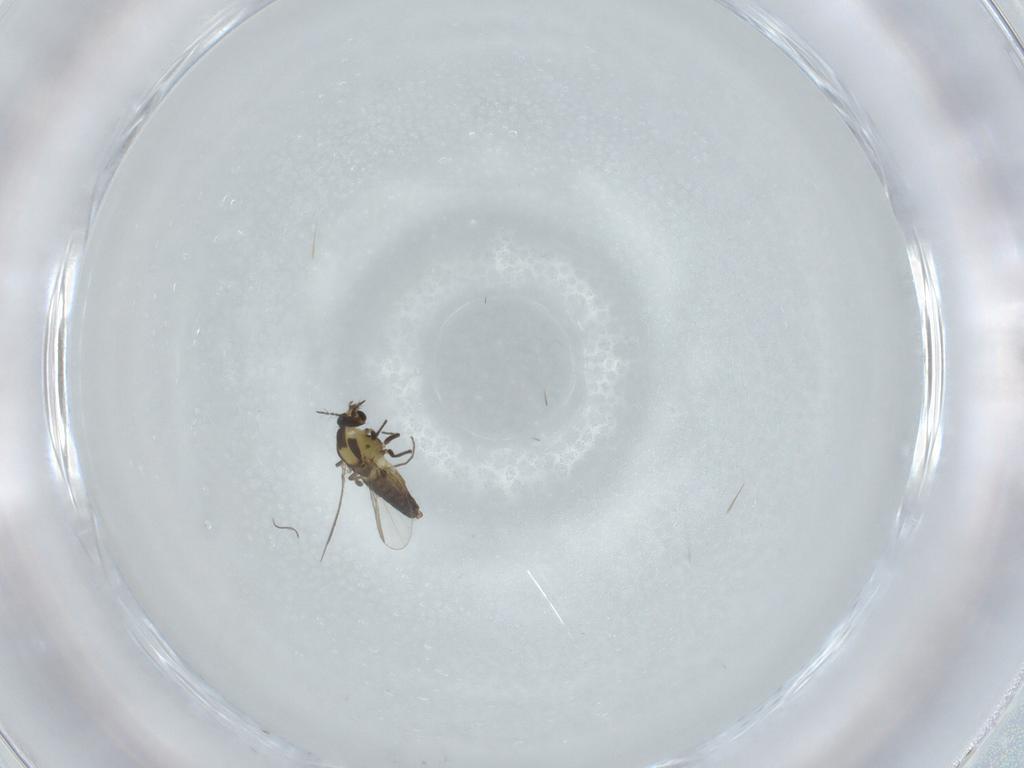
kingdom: Animalia
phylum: Arthropoda
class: Insecta
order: Diptera
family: Chironomidae
